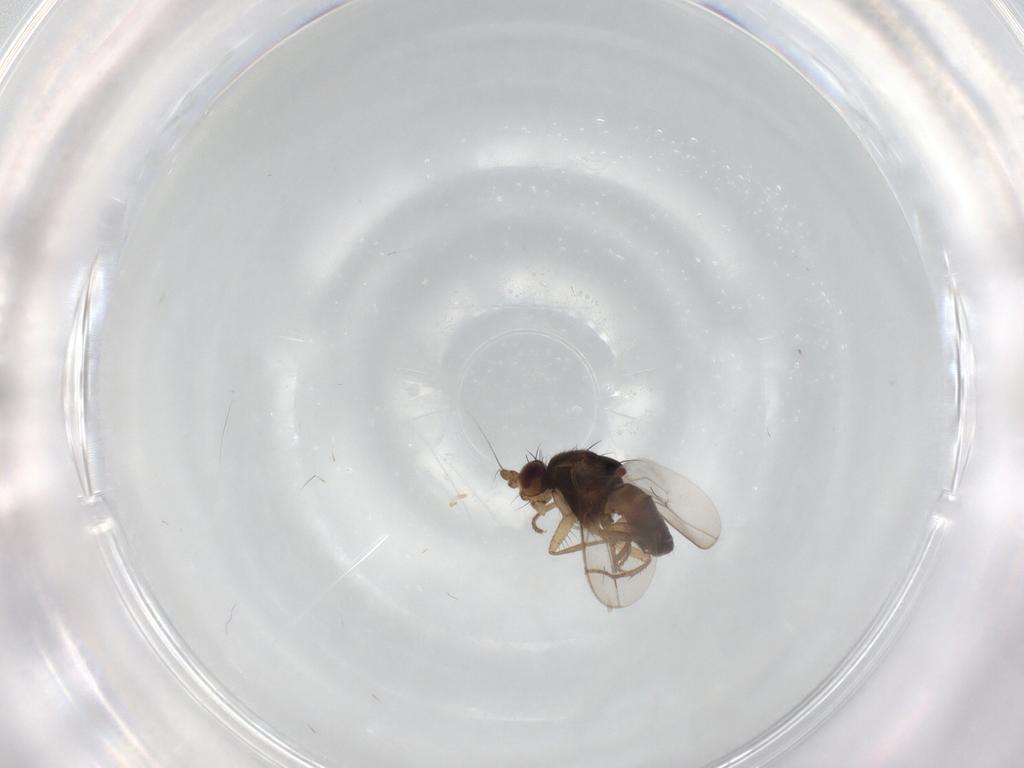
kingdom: Animalia
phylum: Arthropoda
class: Insecta
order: Diptera
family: Sphaeroceridae
